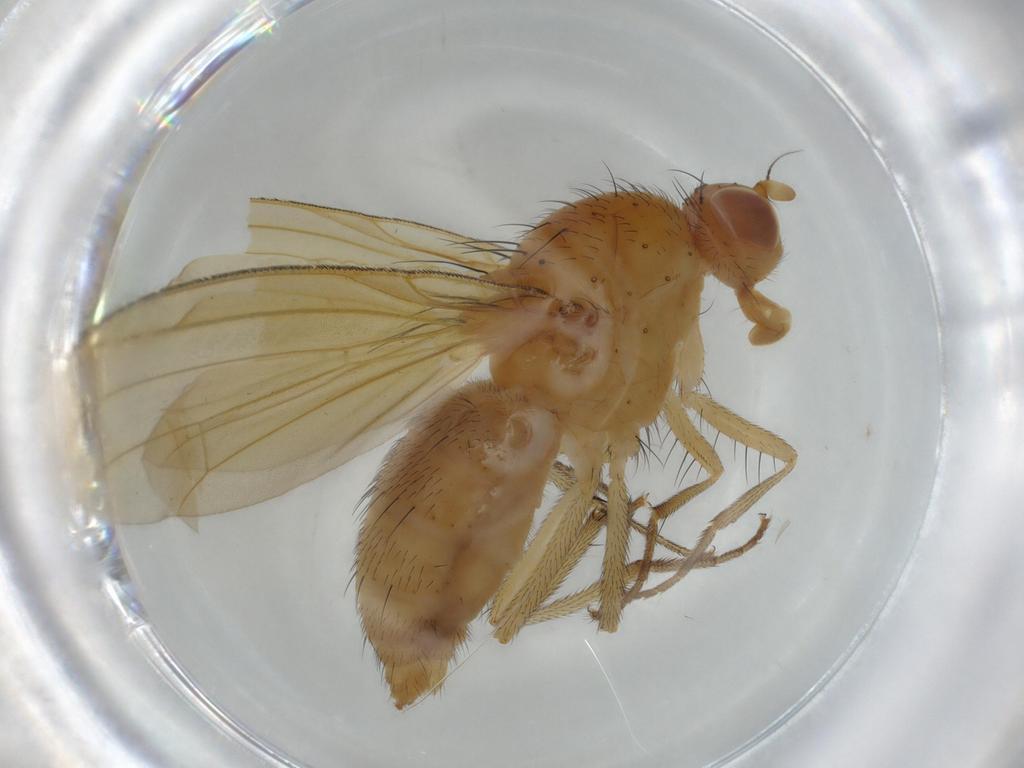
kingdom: Animalia
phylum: Arthropoda
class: Insecta
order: Diptera
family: Fannia
